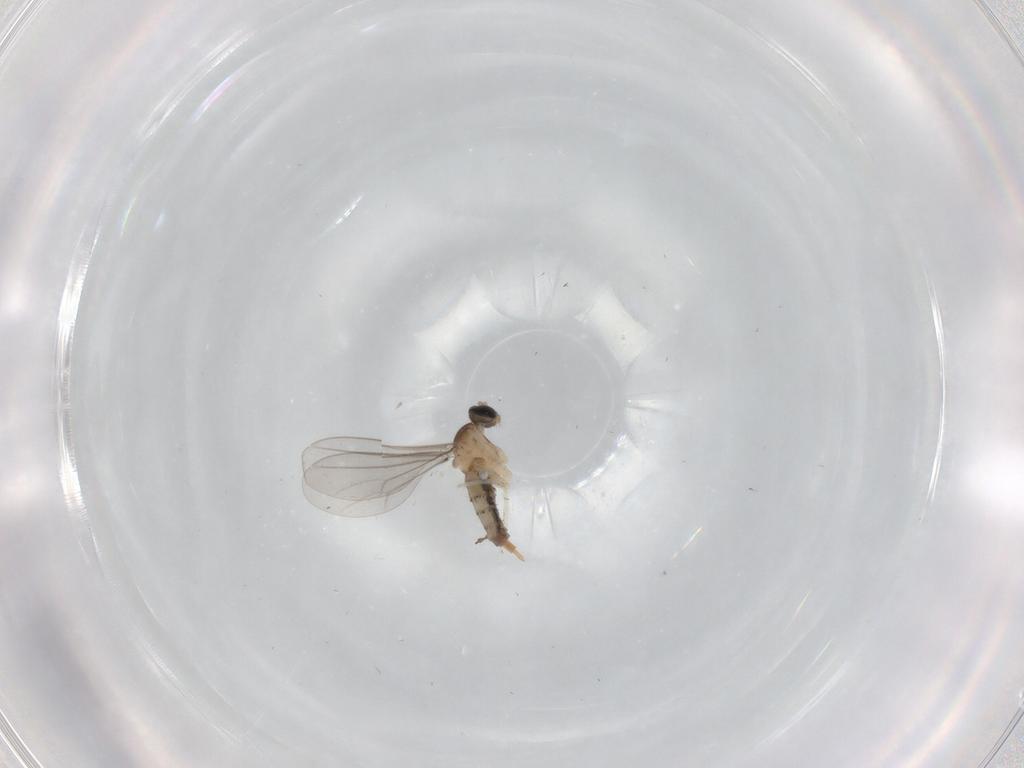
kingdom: Animalia
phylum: Arthropoda
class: Insecta
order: Diptera
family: Cecidomyiidae
